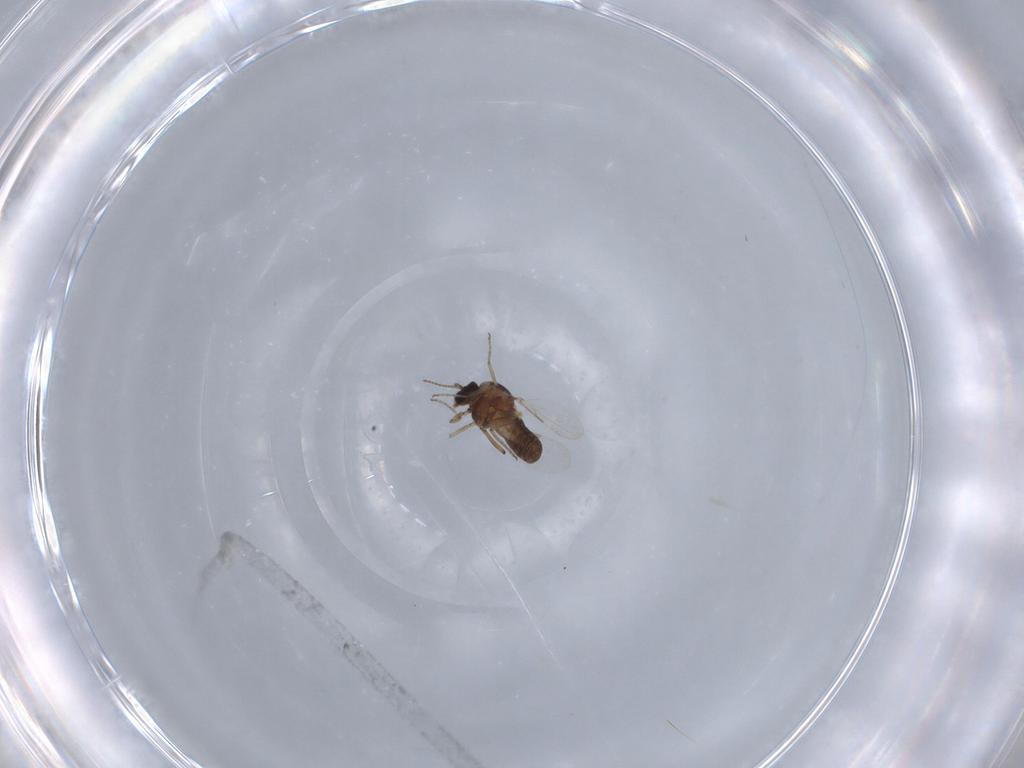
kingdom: Animalia
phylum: Arthropoda
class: Insecta
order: Diptera
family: Ceratopogonidae
